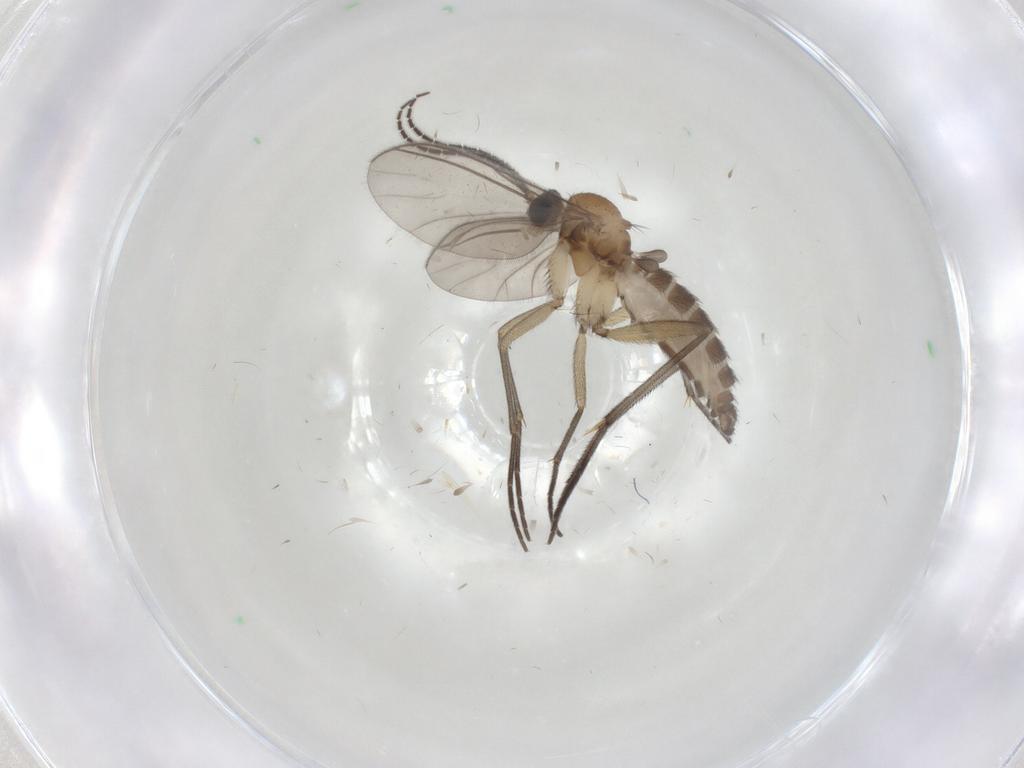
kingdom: Animalia
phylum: Arthropoda
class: Insecta
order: Diptera
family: Sciaridae
